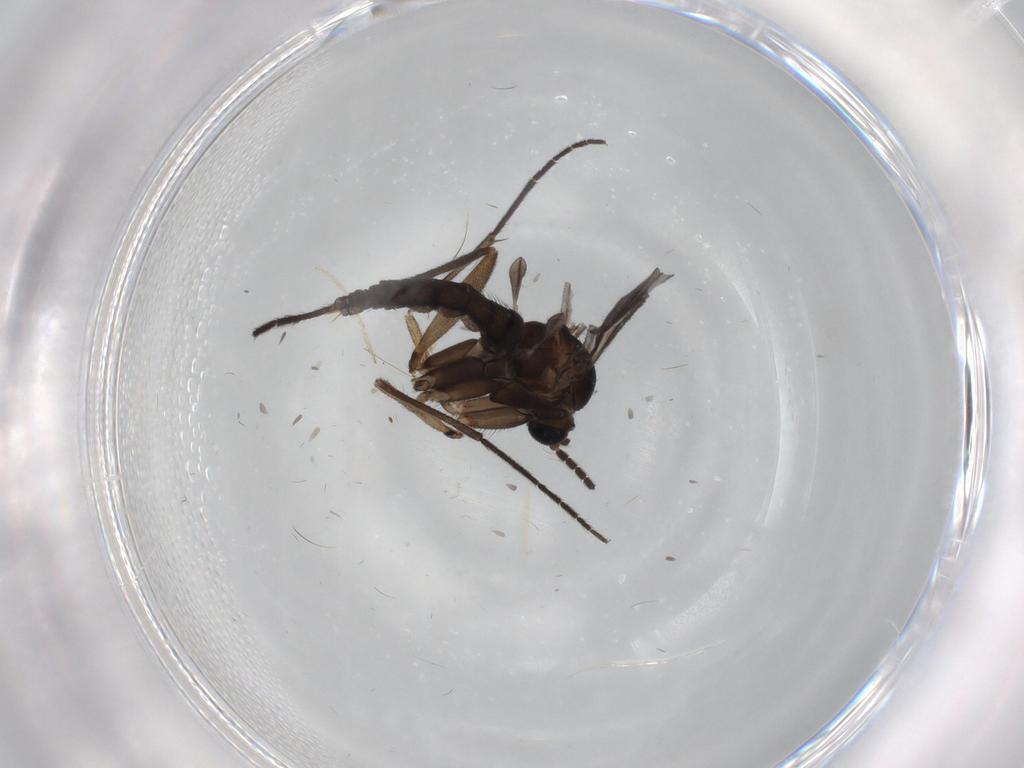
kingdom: Animalia
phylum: Arthropoda
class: Insecta
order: Diptera
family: Sciaridae
